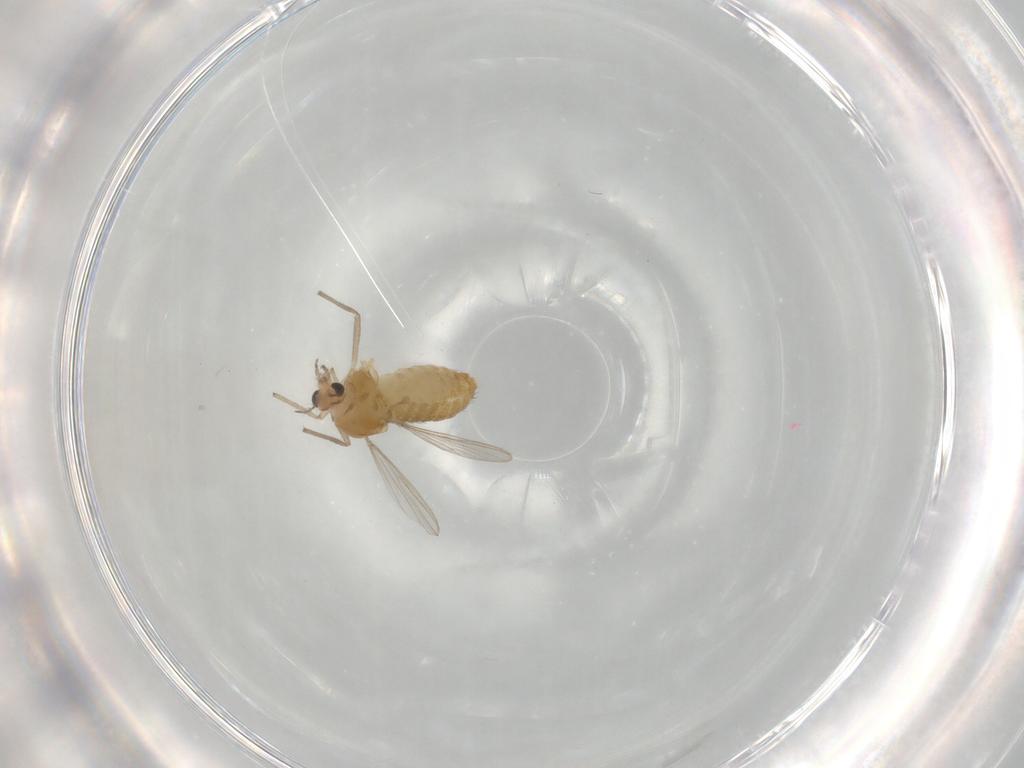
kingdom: Animalia
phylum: Arthropoda
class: Insecta
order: Diptera
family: Chironomidae
